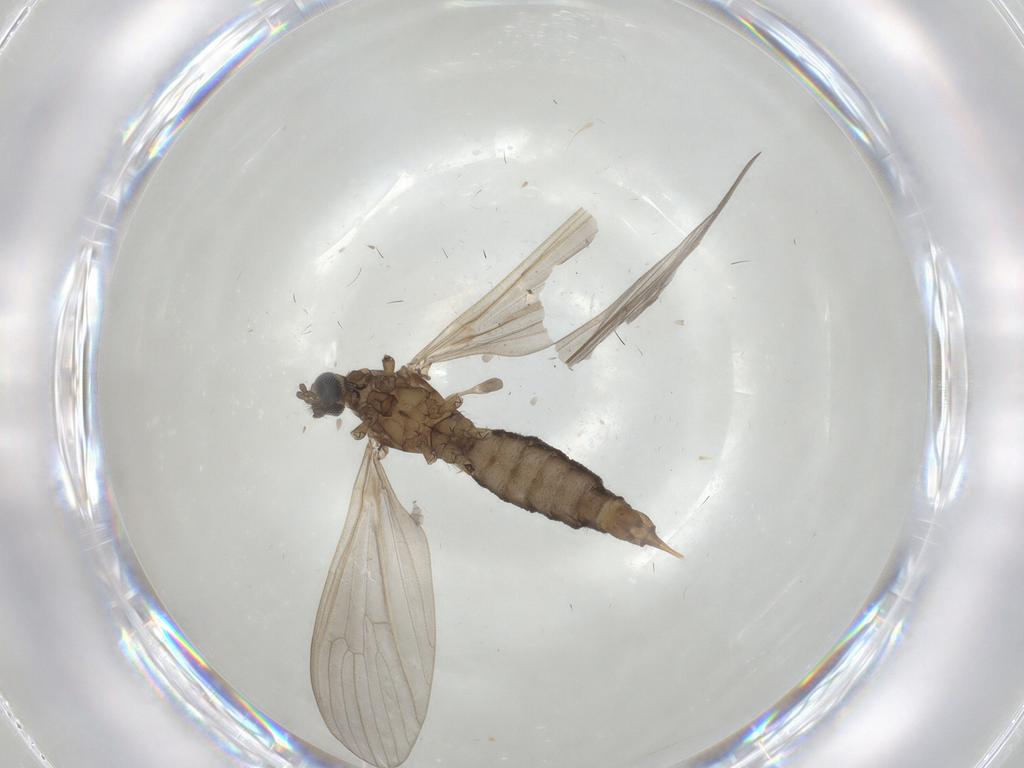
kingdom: Animalia
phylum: Arthropoda
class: Insecta
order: Diptera
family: Limoniidae
